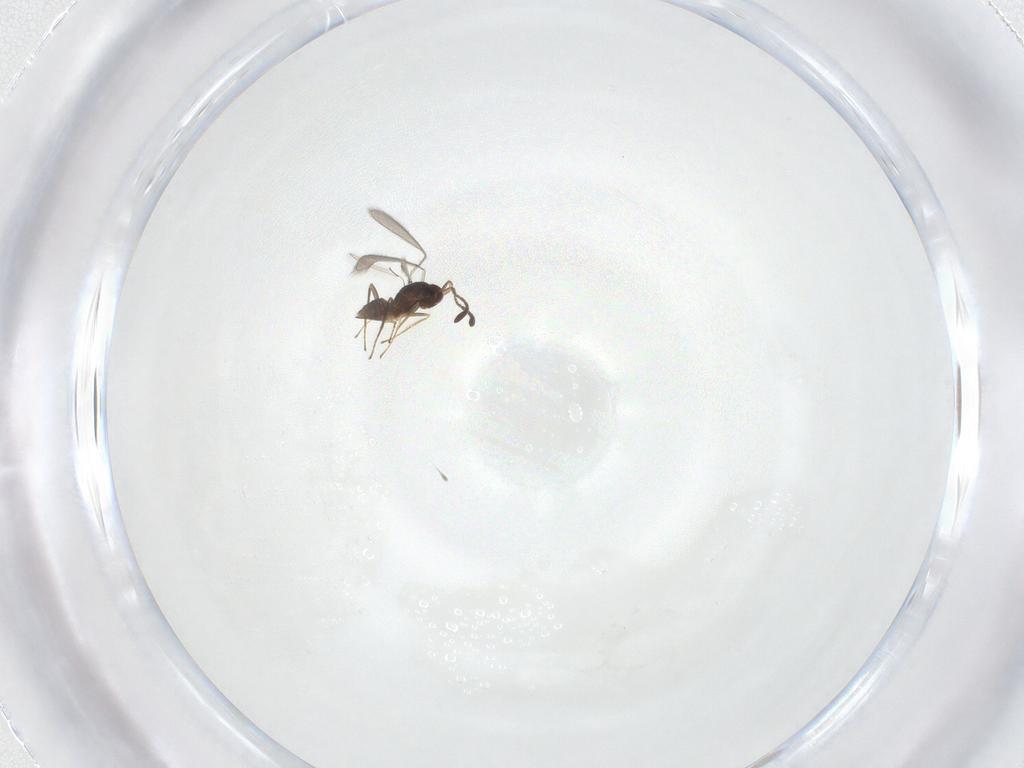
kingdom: Animalia
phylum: Arthropoda
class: Insecta
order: Hymenoptera
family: Mymaridae
